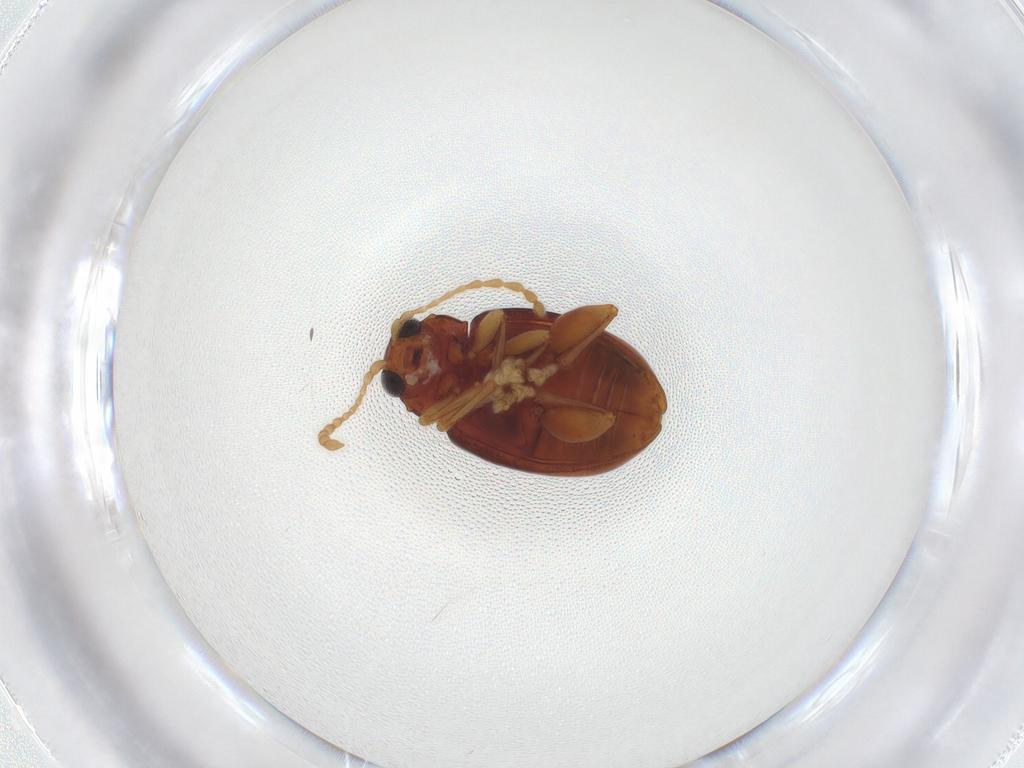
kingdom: Animalia
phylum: Arthropoda
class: Insecta
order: Coleoptera
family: Chrysomelidae
